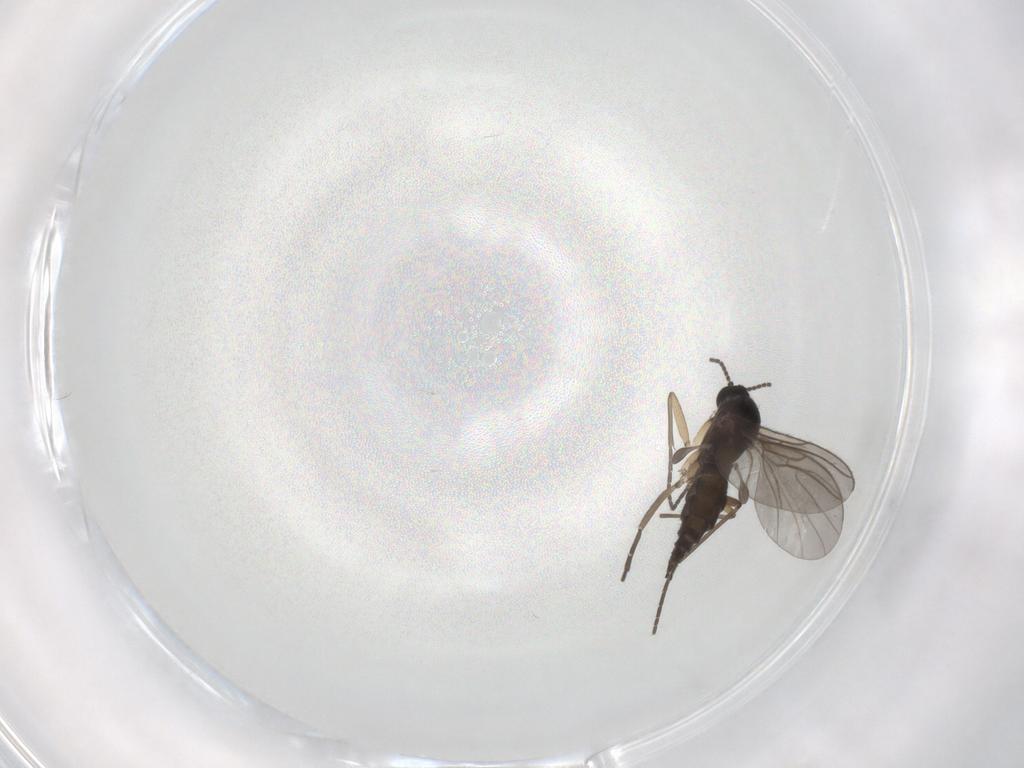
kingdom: Animalia
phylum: Arthropoda
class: Insecta
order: Diptera
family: Sciaridae
